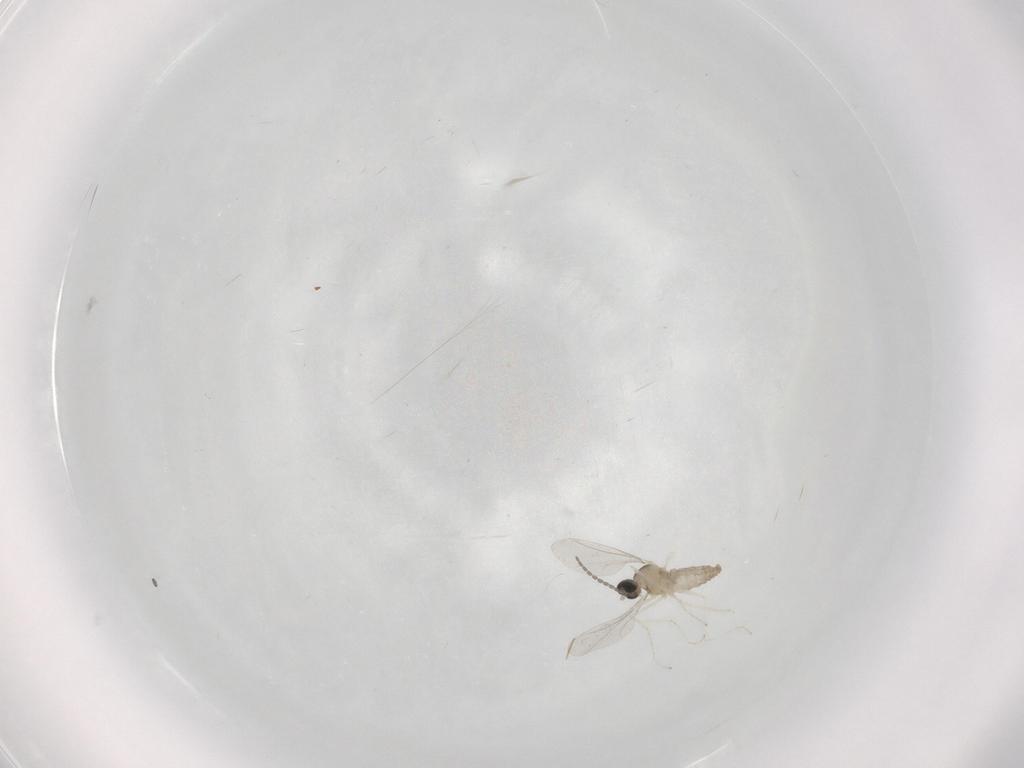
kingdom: Animalia
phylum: Arthropoda
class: Insecta
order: Diptera
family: Cecidomyiidae
